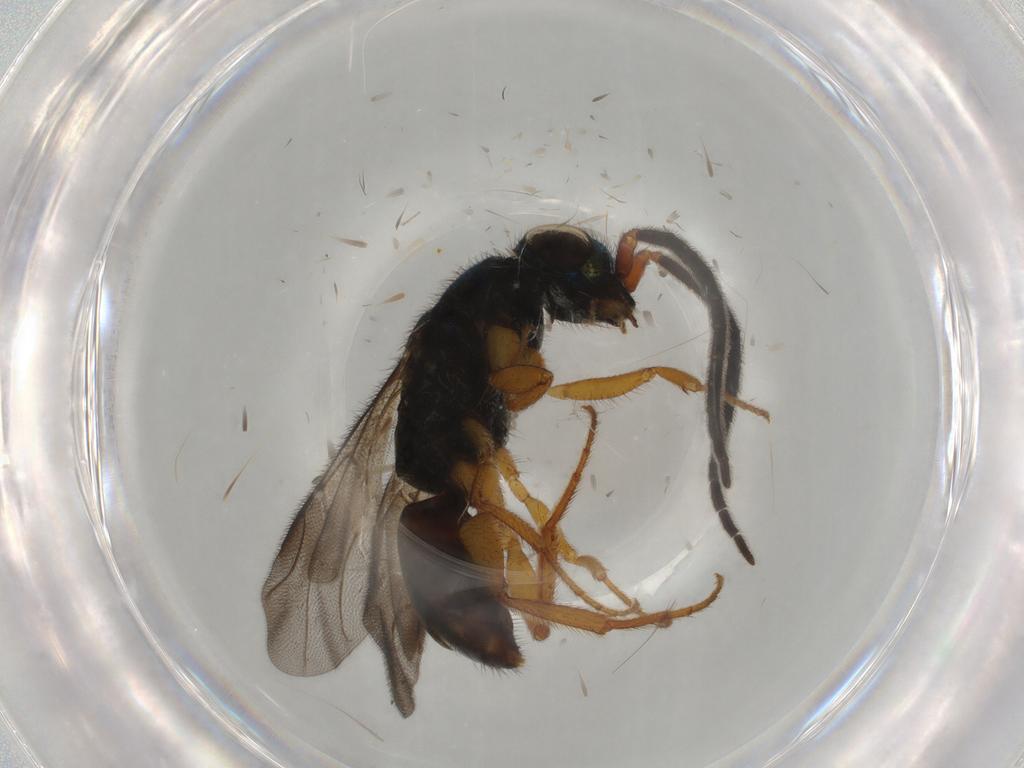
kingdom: Animalia
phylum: Arthropoda
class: Insecta
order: Hymenoptera
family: Chrysididae
